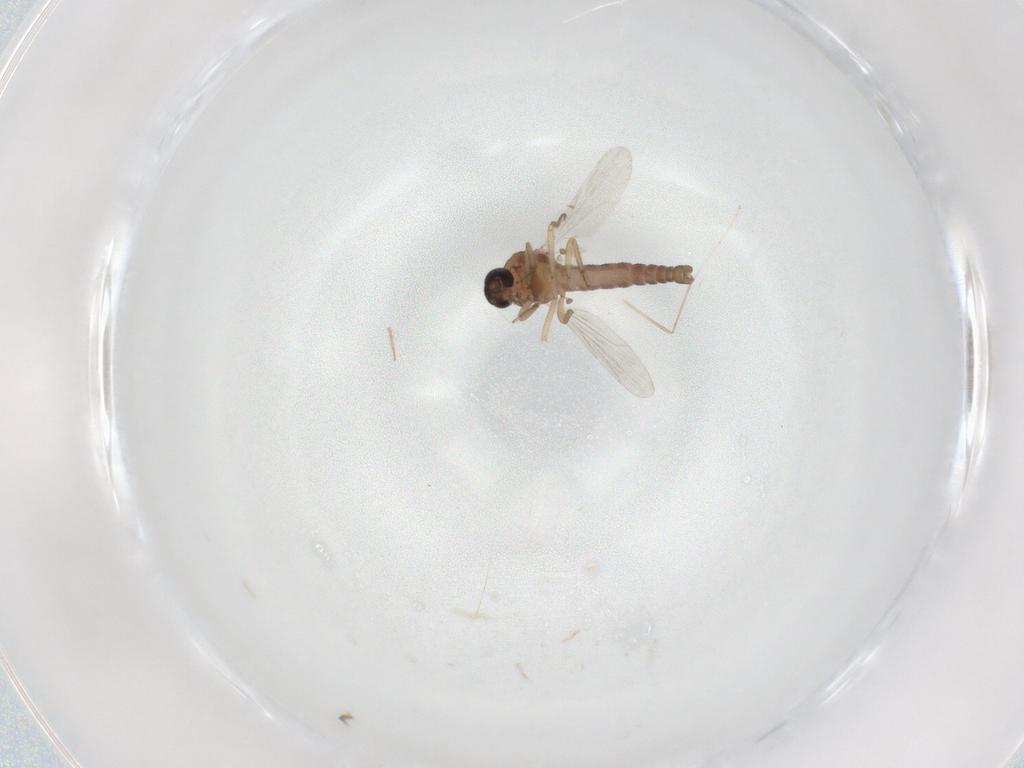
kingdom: Animalia
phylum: Arthropoda
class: Insecta
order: Diptera
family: Ceratopogonidae
